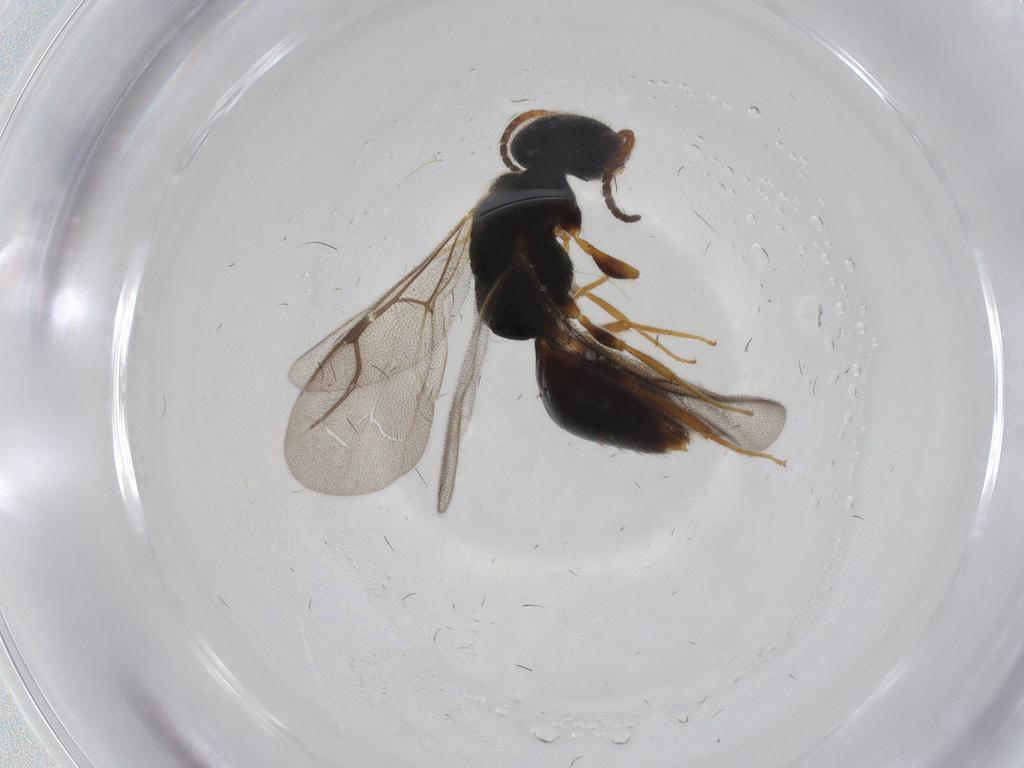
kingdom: Animalia
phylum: Arthropoda
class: Insecta
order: Hymenoptera
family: Bethylidae
